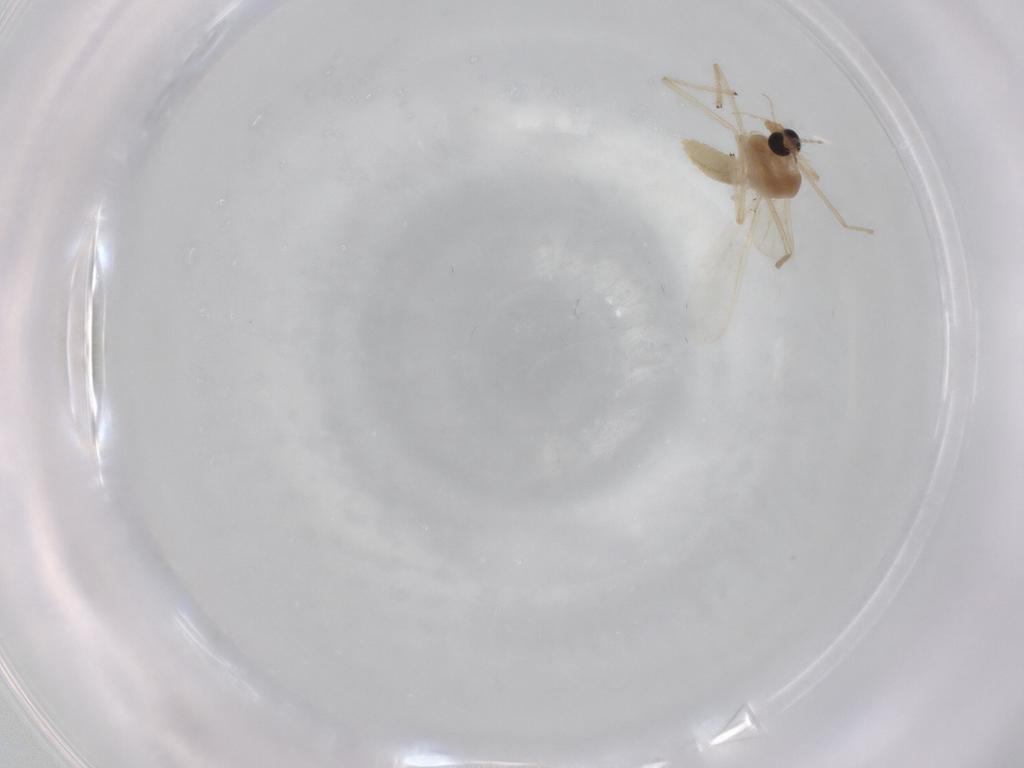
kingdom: Animalia
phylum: Arthropoda
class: Insecta
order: Diptera
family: Chironomidae
